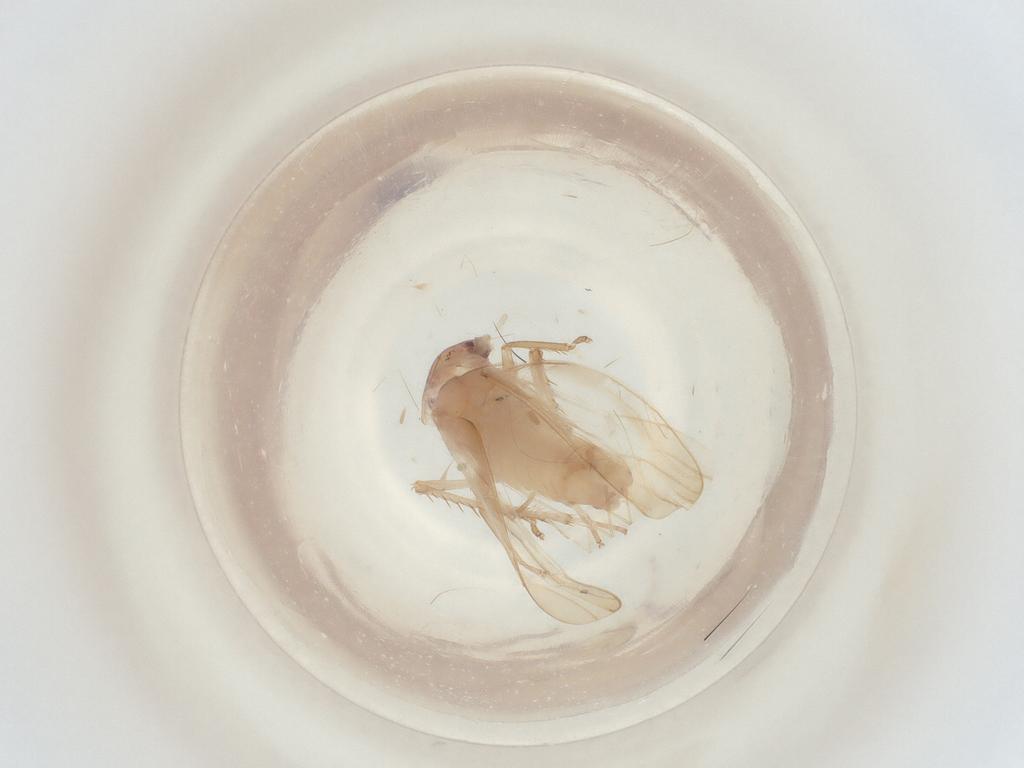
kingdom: Animalia
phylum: Arthropoda
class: Insecta
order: Hemiptera
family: Cicadellidae
